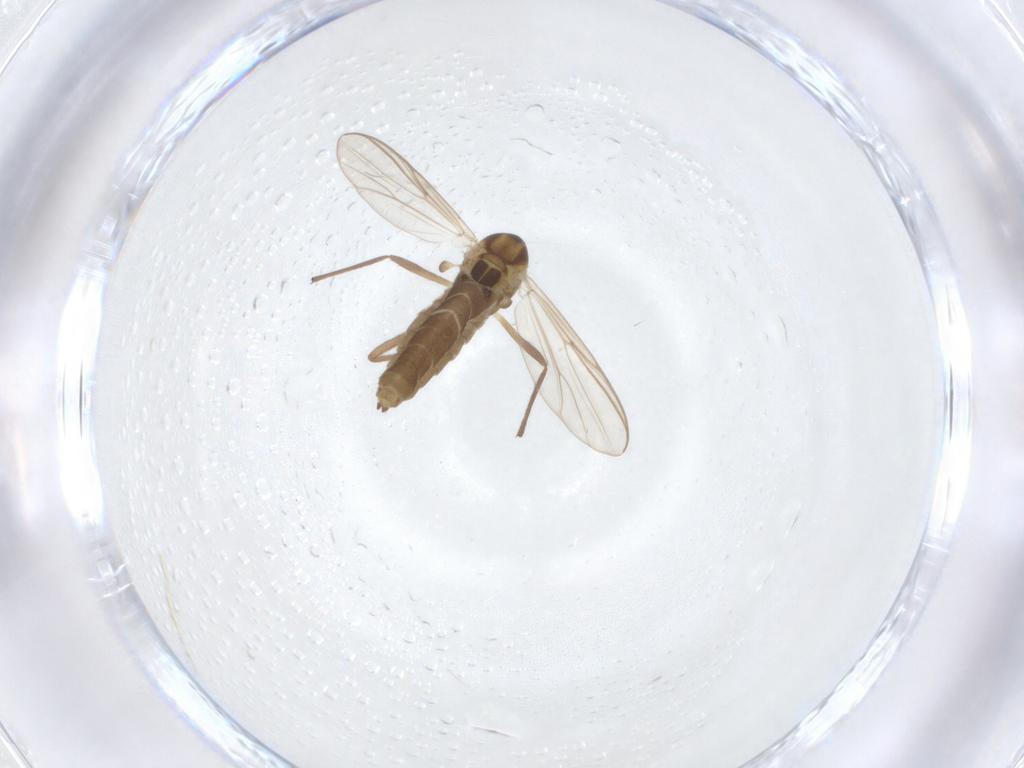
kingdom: Animalia
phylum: Arthropoda
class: Insecta
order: Diptera
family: Chironomidae
